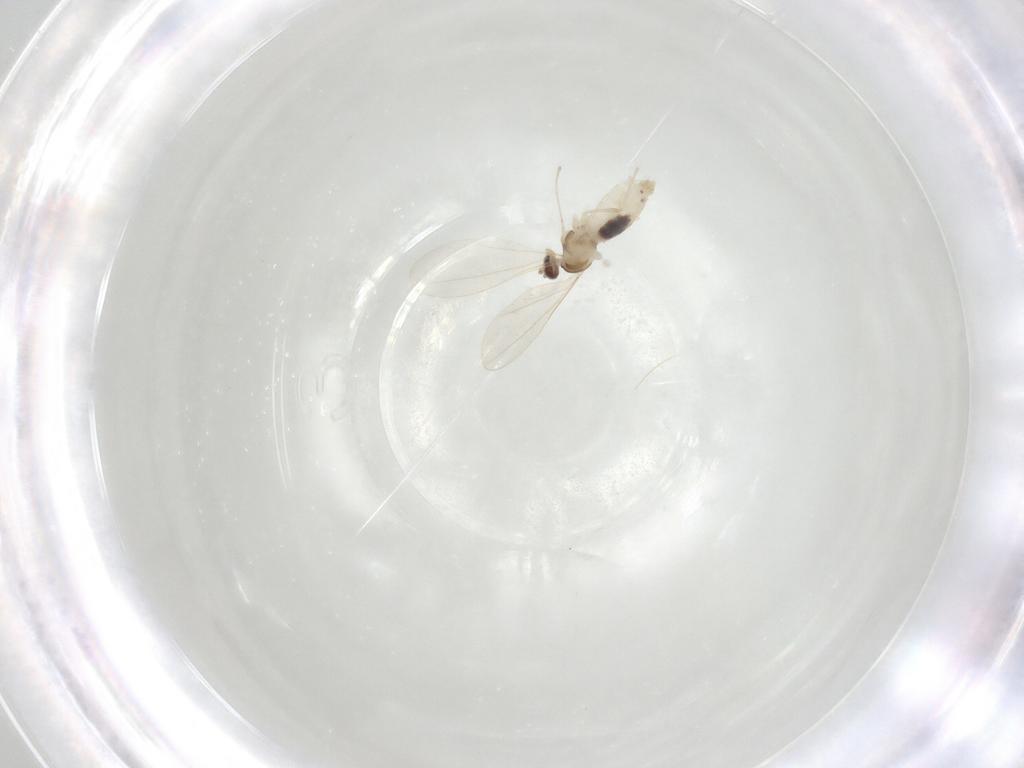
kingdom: Animalia
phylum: Arthropoda
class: Insecta
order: Diptera
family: Cecidomyiidae
